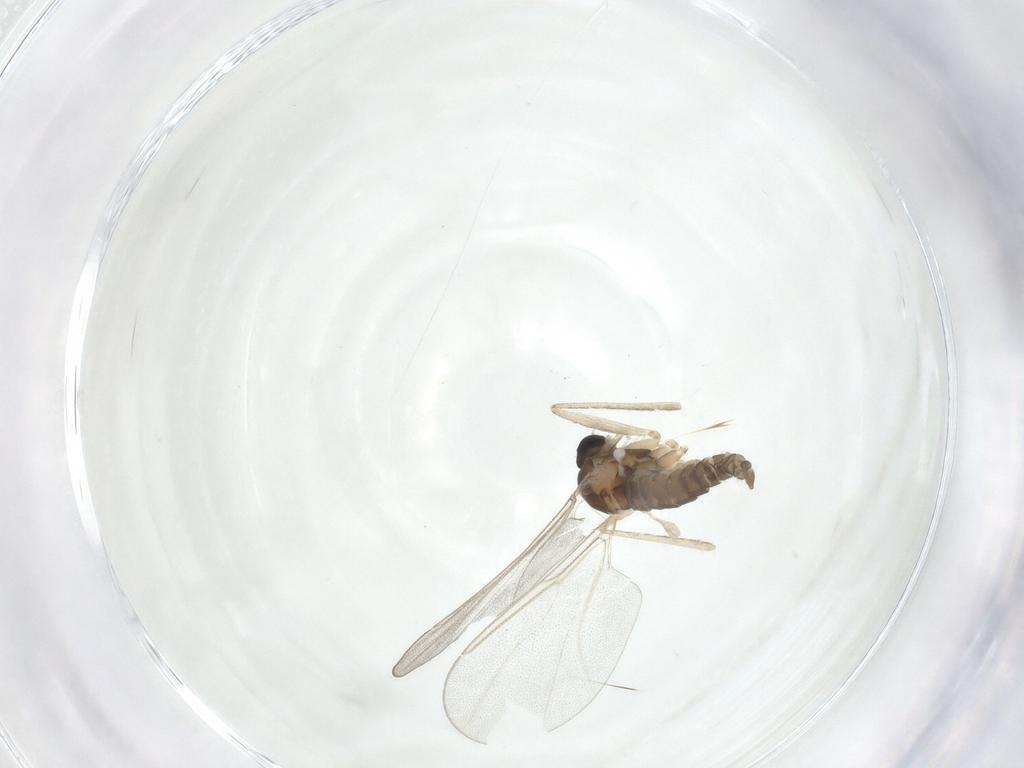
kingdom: Animalia
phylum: Arthropoda
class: Insecta
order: Diptera
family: Cecidomyiidae
